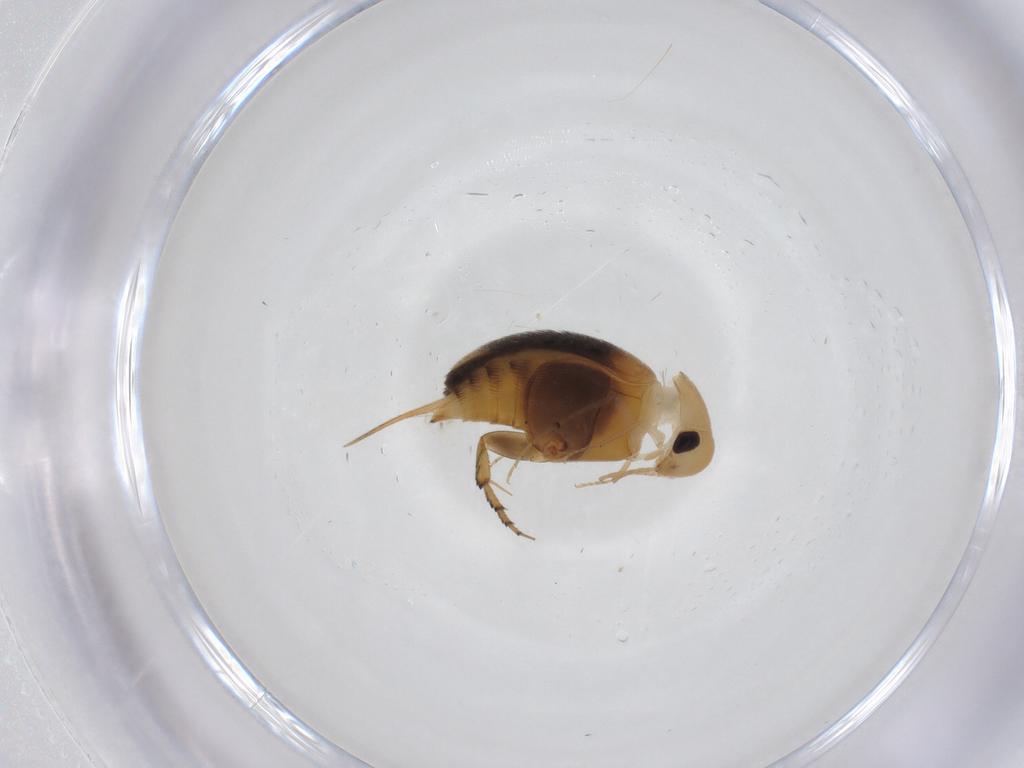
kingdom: Animalia
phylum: Arthropoda
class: Insecta
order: Coleoptera
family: Mordellidae
